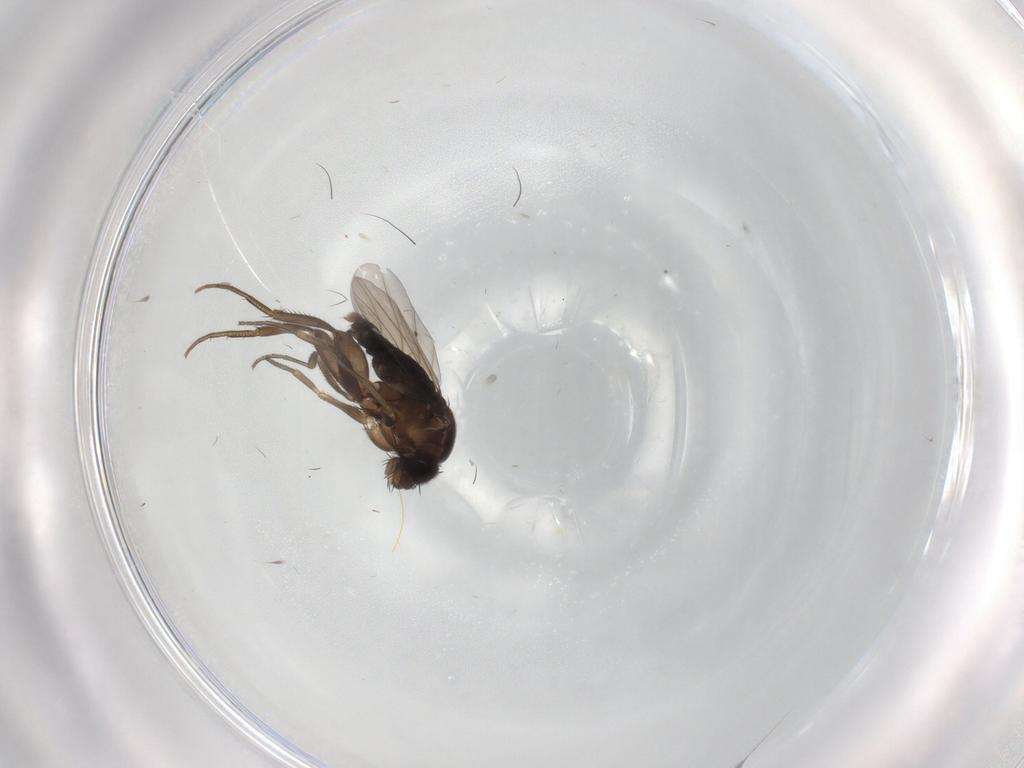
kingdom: Animalia
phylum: Arthropoda
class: Insecta
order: Diptera
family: Phoridae
